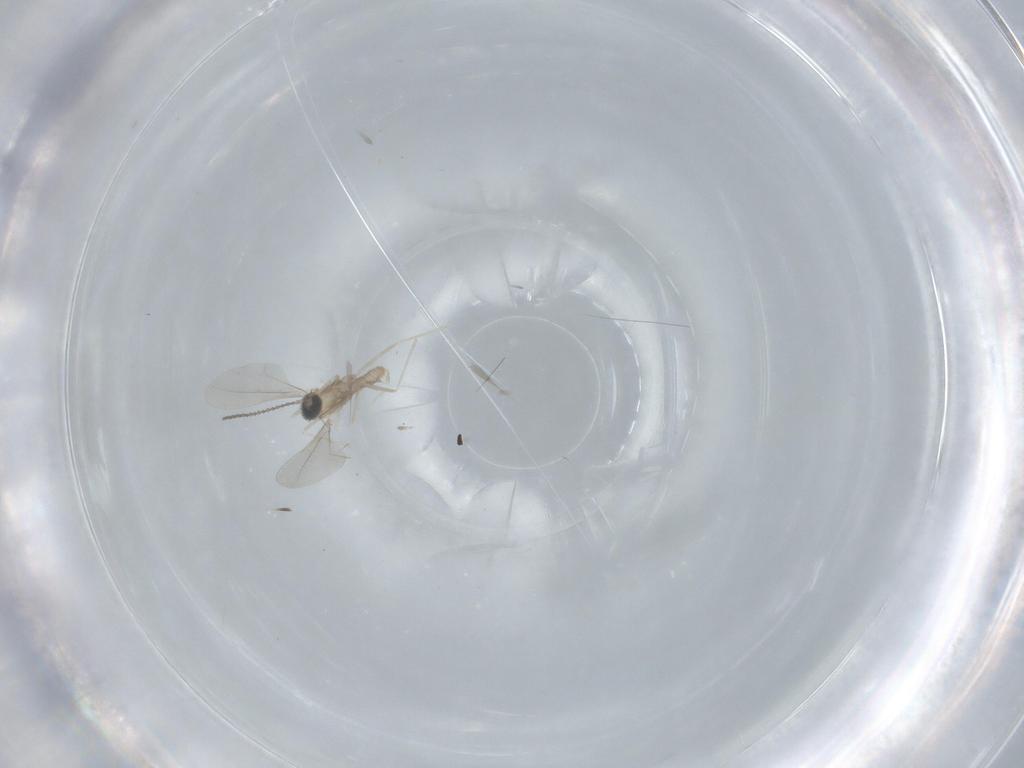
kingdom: Animalia
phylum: Arthropoda
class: Insecta
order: Diptera
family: Cecidomyiidae
